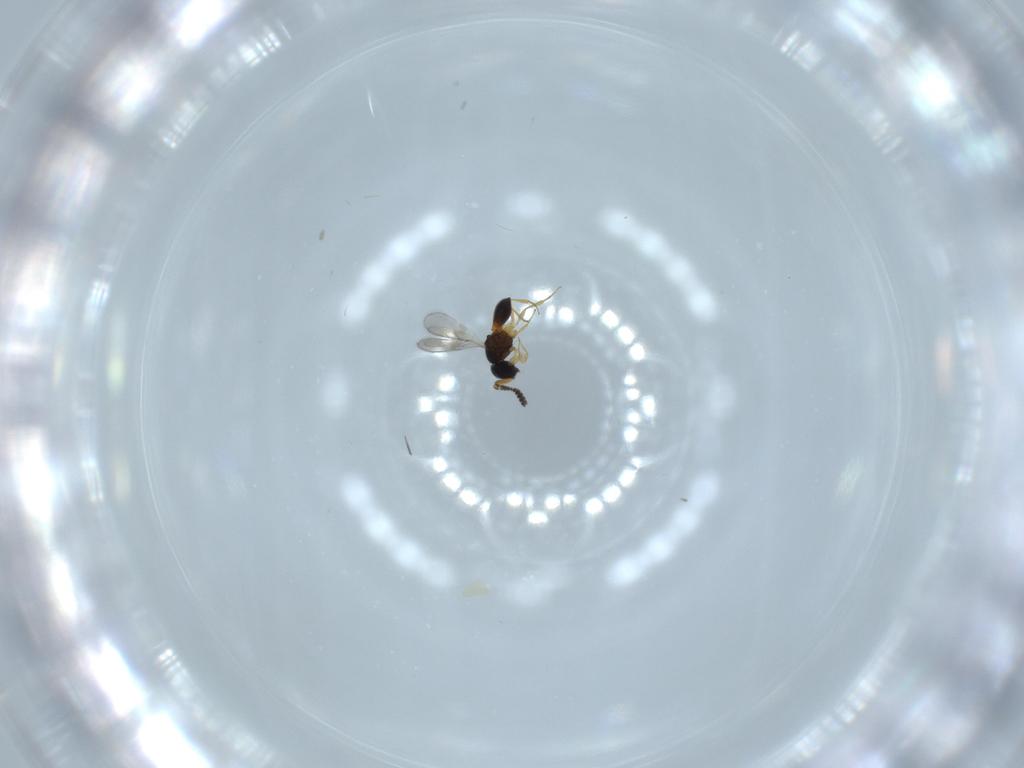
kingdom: Animalia
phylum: Arthropoda
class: Insecta
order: Hymenoptera
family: Scelionidae
